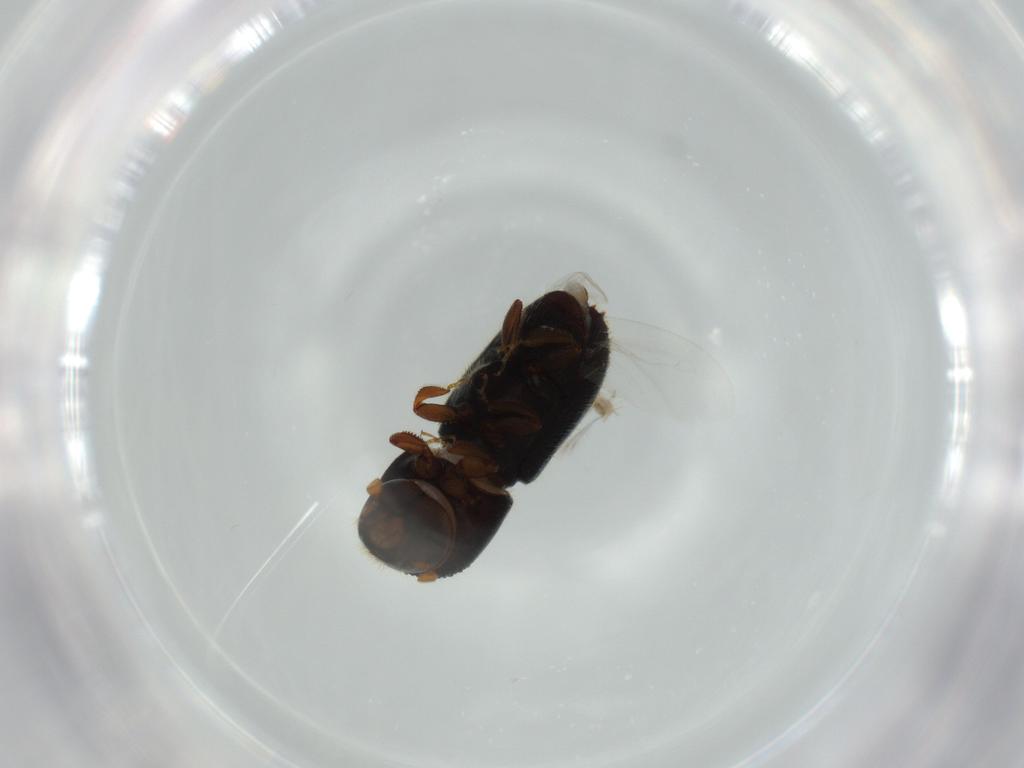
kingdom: Animalia
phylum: Arthropoda
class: Insecta
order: Coleoptera
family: Curculionidae
